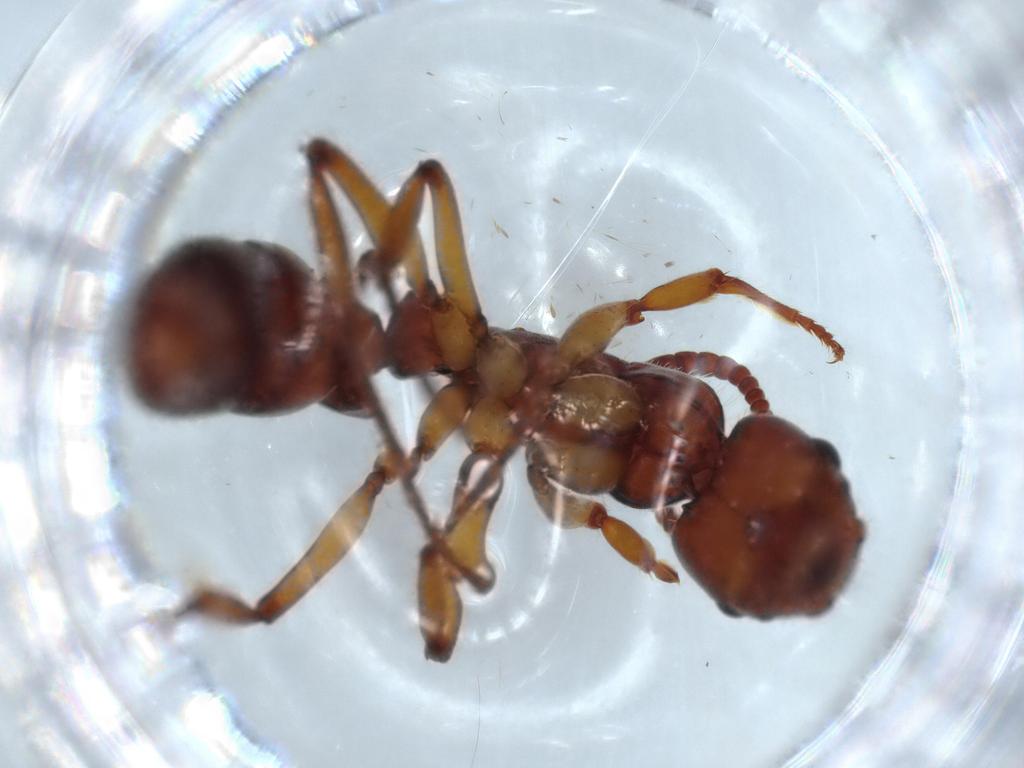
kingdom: Animalia
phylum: Arthropoda
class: Insecta
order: Hymenoptera
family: Formicidae
